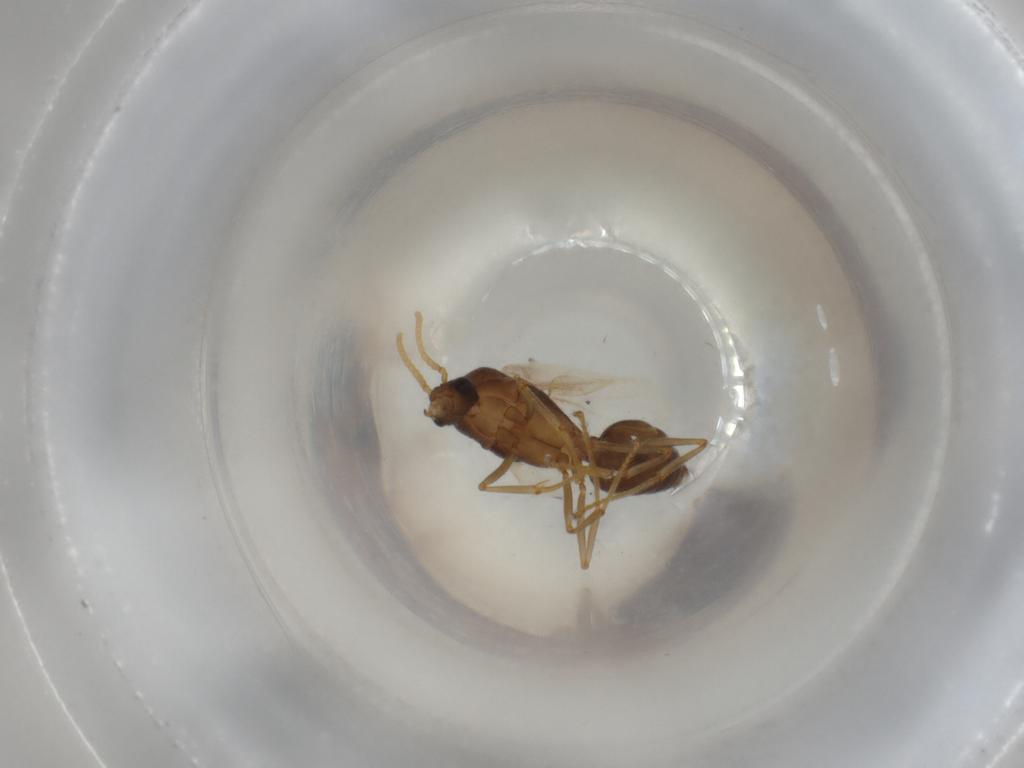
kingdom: Animalia
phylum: Arthropoda
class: Insecta
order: Hymenoptera
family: Formicidae
